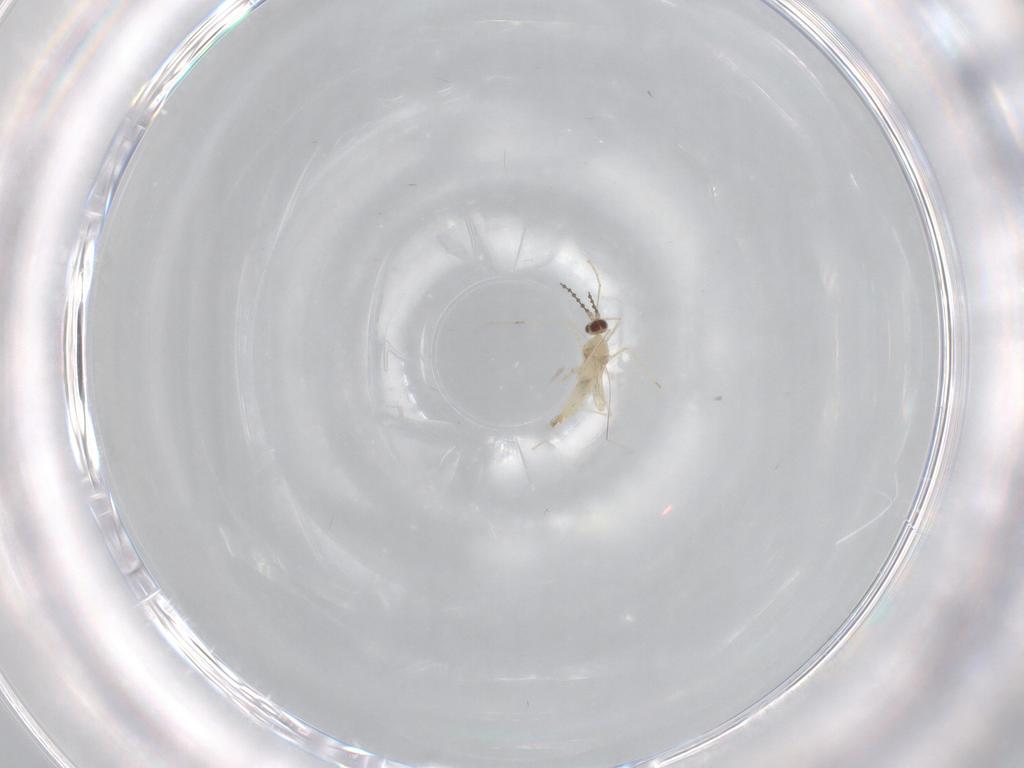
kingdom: Animalia
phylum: Arthropoda
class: Insecta
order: Diptera
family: Cecidomyiidae
